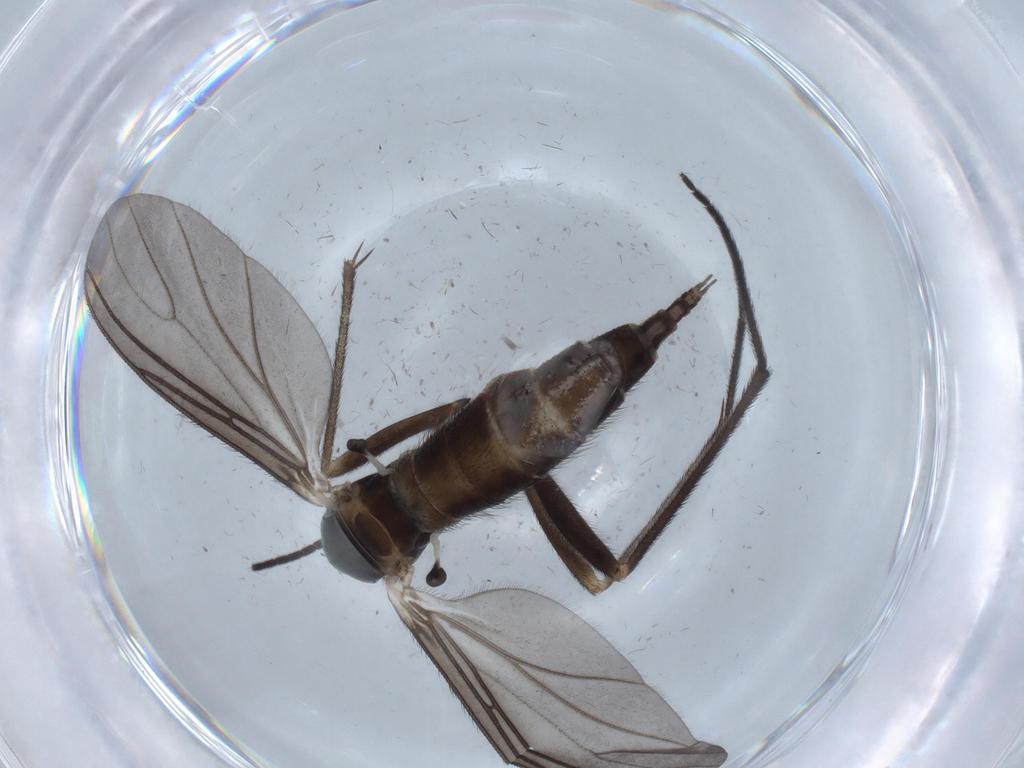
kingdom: Animalia
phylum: Arthropoda
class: Insecta
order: Diptera
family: Sciaridae
